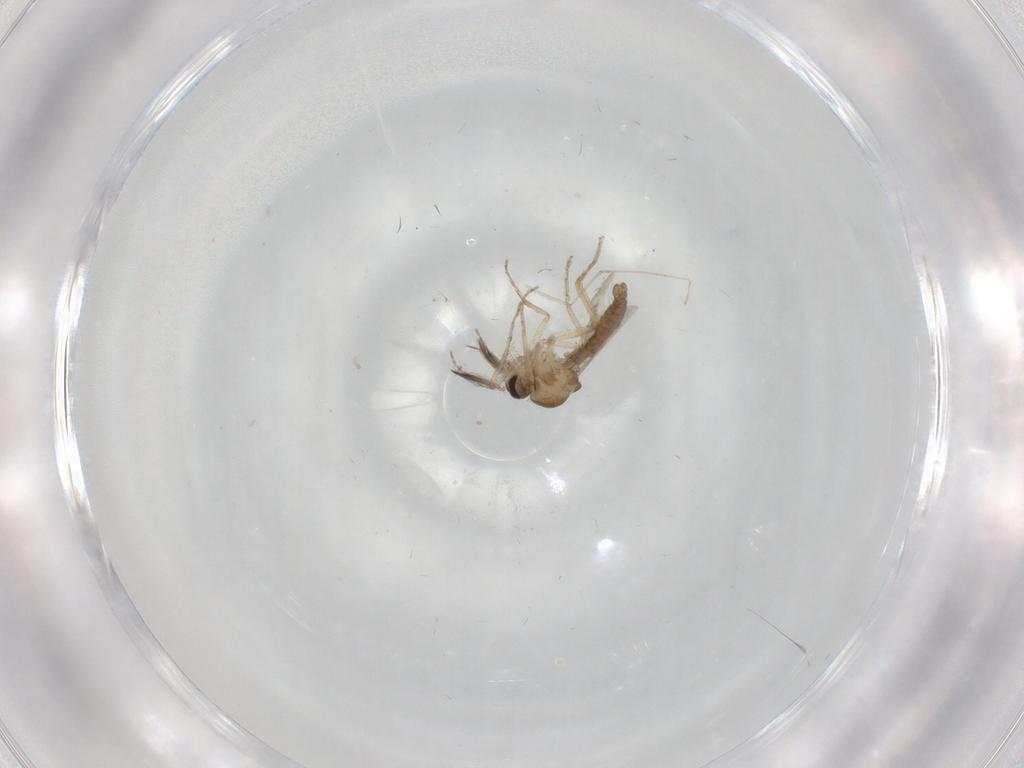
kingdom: Animalia
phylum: Arthropoda
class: Insecta
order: Diptera
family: Ceratopogonidae
